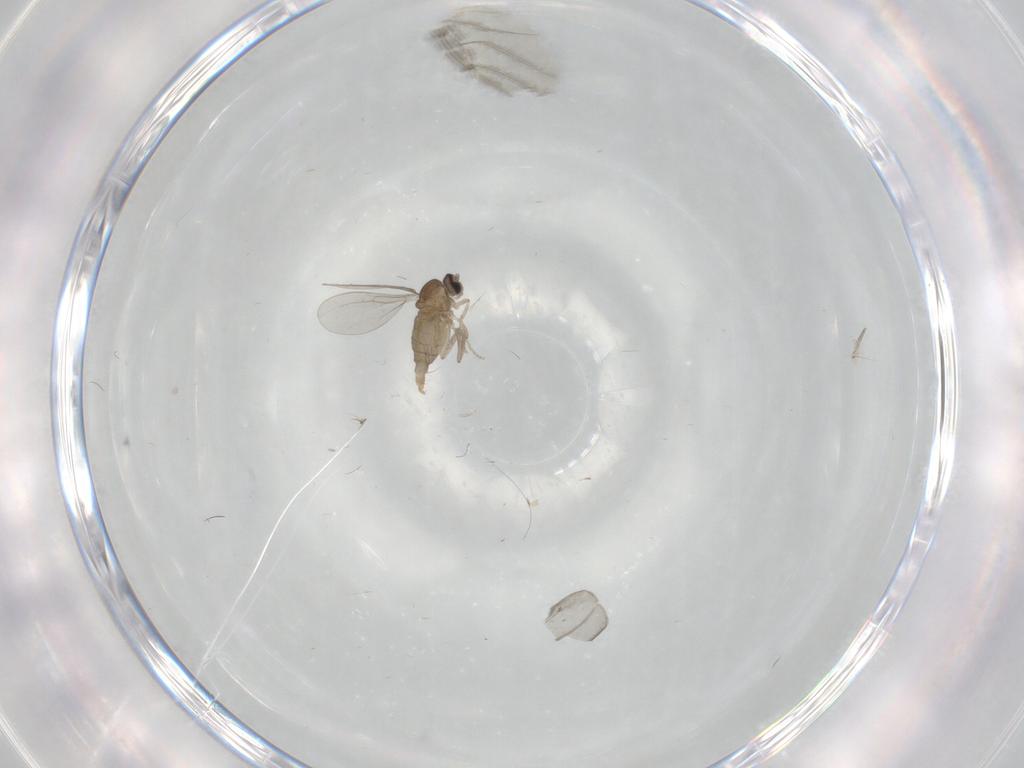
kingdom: Animalia
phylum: Arthropoda
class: Insecta
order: Diptera
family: Cecidomyiidae
